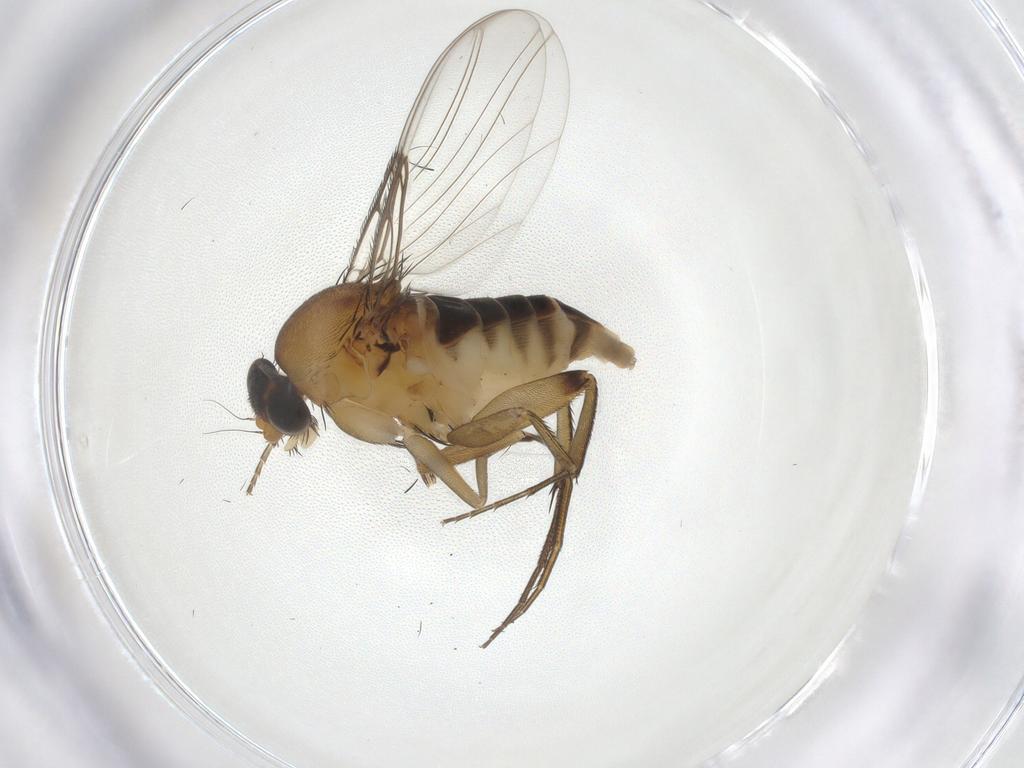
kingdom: Animalia
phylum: Arthropoda
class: Insecta
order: Diptera
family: Phoridae
